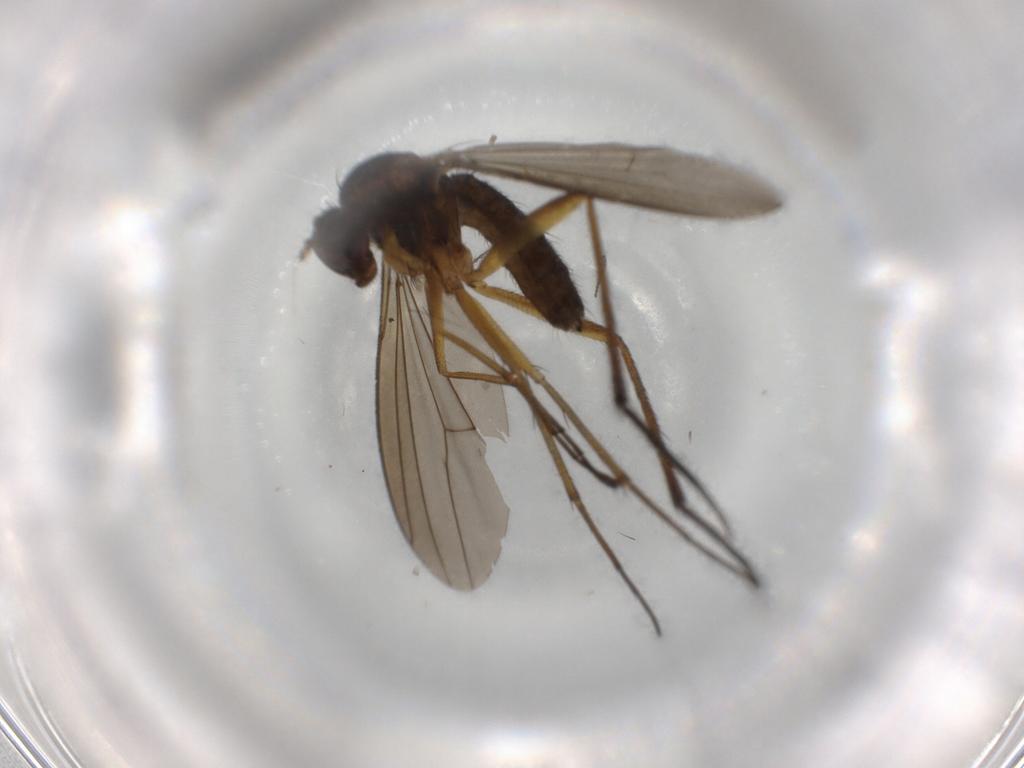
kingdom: Animalia
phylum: Arthropoda
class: Insecta
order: Diptera
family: Dolichopodidae
